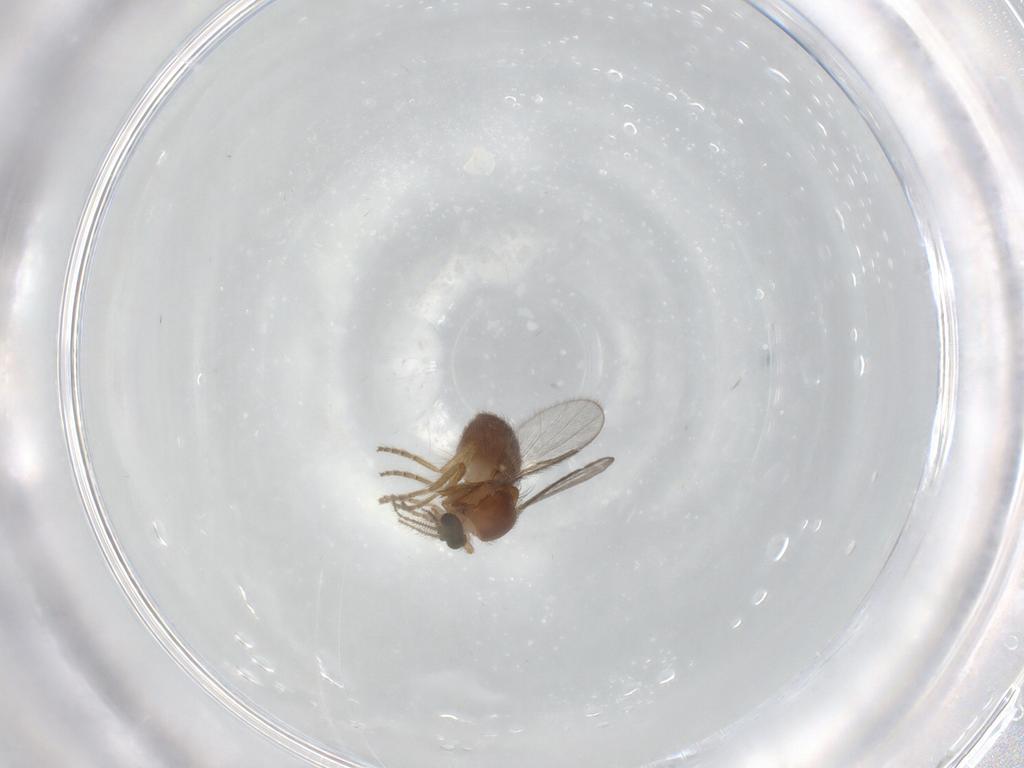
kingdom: Animalia
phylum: Arthropoda
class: Insecta
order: Diptera
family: Ceratopogonidae
